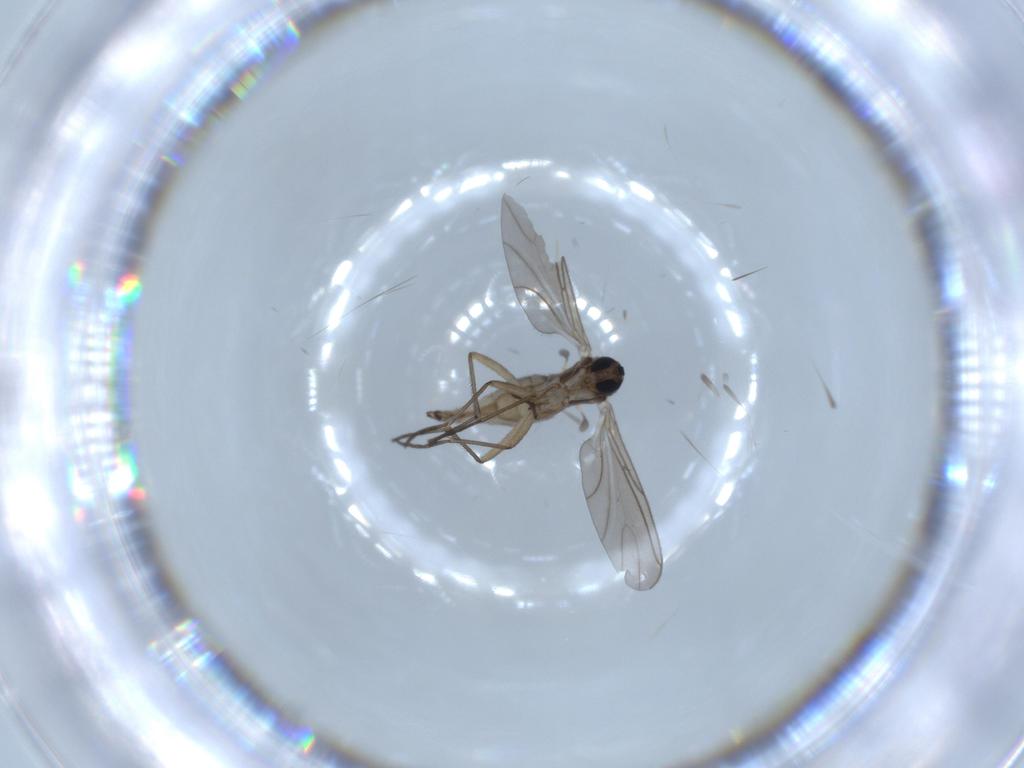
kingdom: Animalia
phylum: Arthropoda
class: Insecta
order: Diptera
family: Sciaridae
